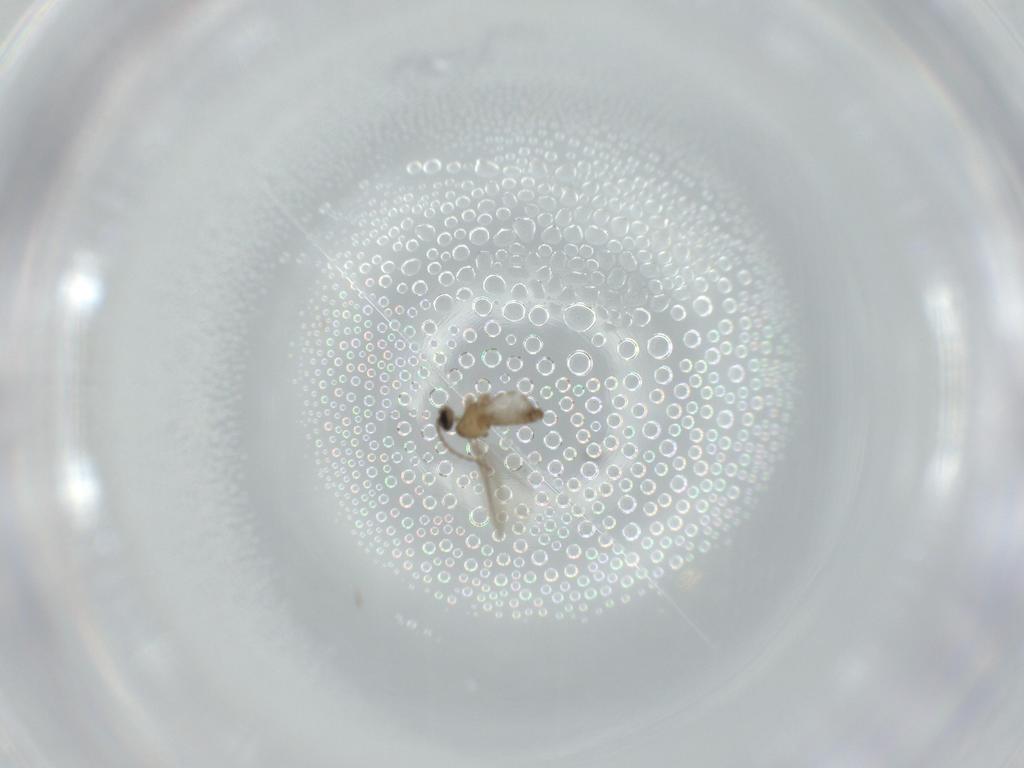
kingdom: Animalia
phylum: Arthropoda
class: Insecta
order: Diptera
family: Cecidomyiidae
